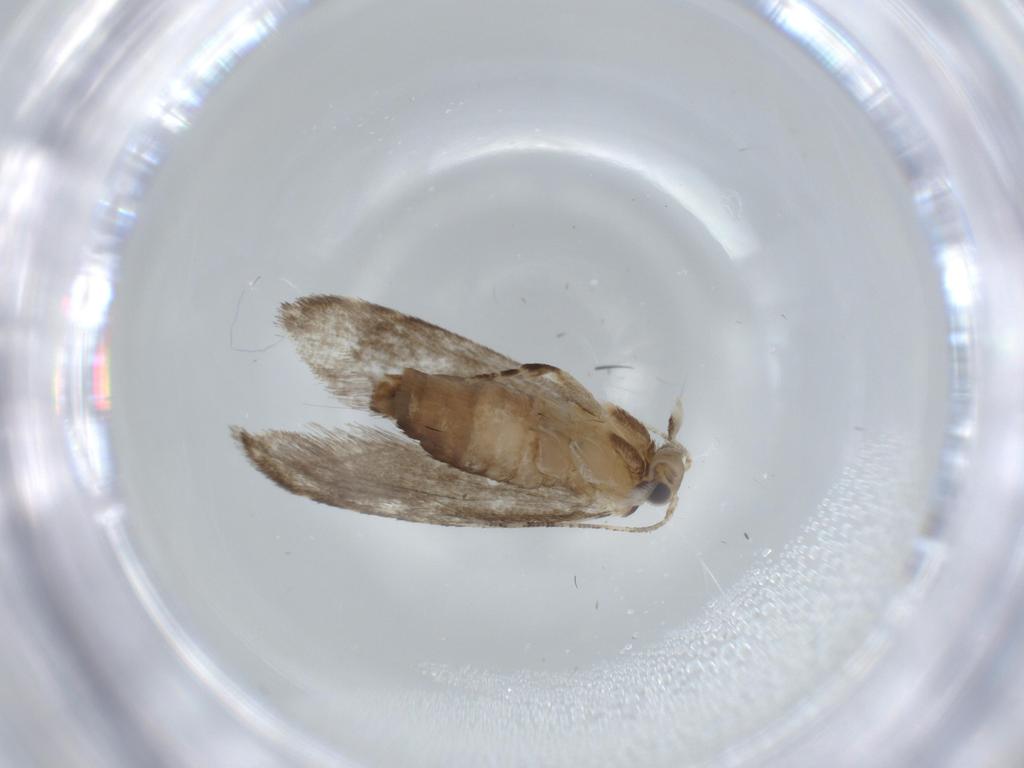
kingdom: Animalia
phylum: Arthropoda
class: Insecta
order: Lepidoptera
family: Tineidae
